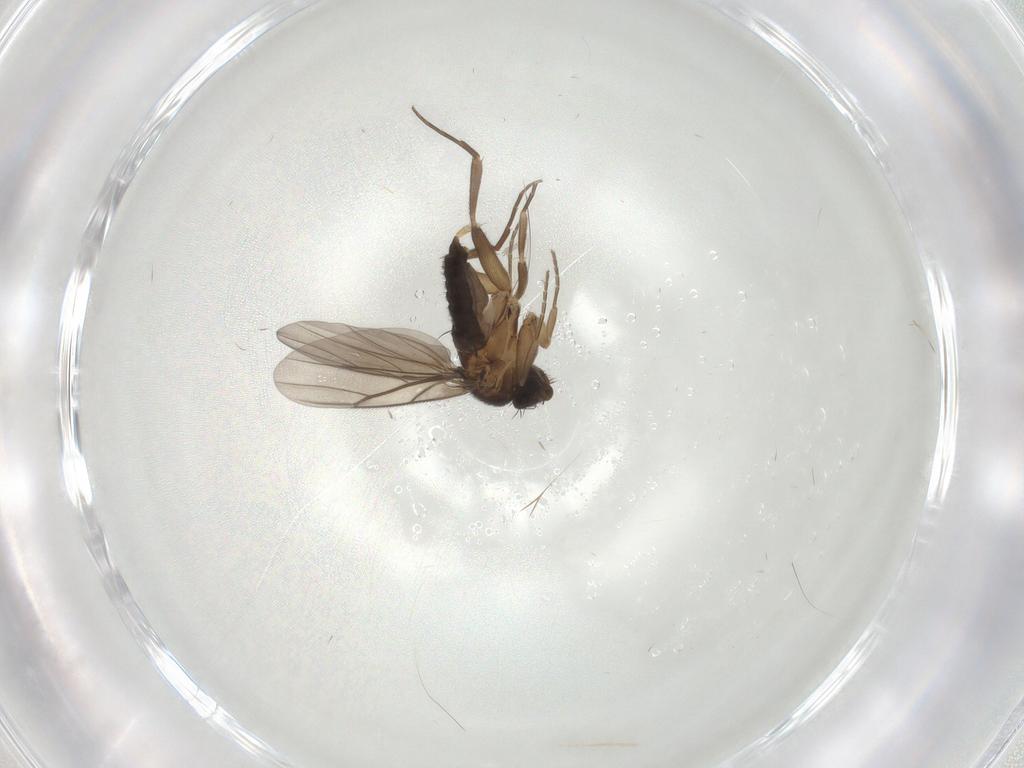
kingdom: Animalia
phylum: Arthropoda
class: Insecta
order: Diptera
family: Phoridae
